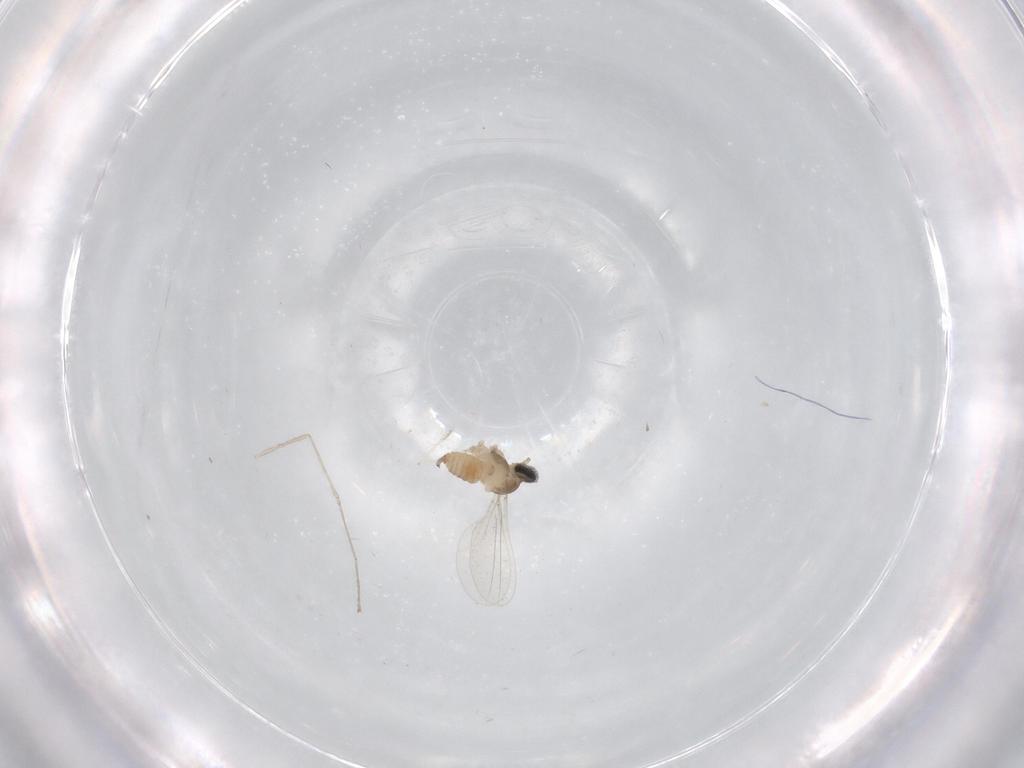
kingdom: Animalia
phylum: Arthropoda
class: Insecta
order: Diptera
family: Cecidomyiidae
